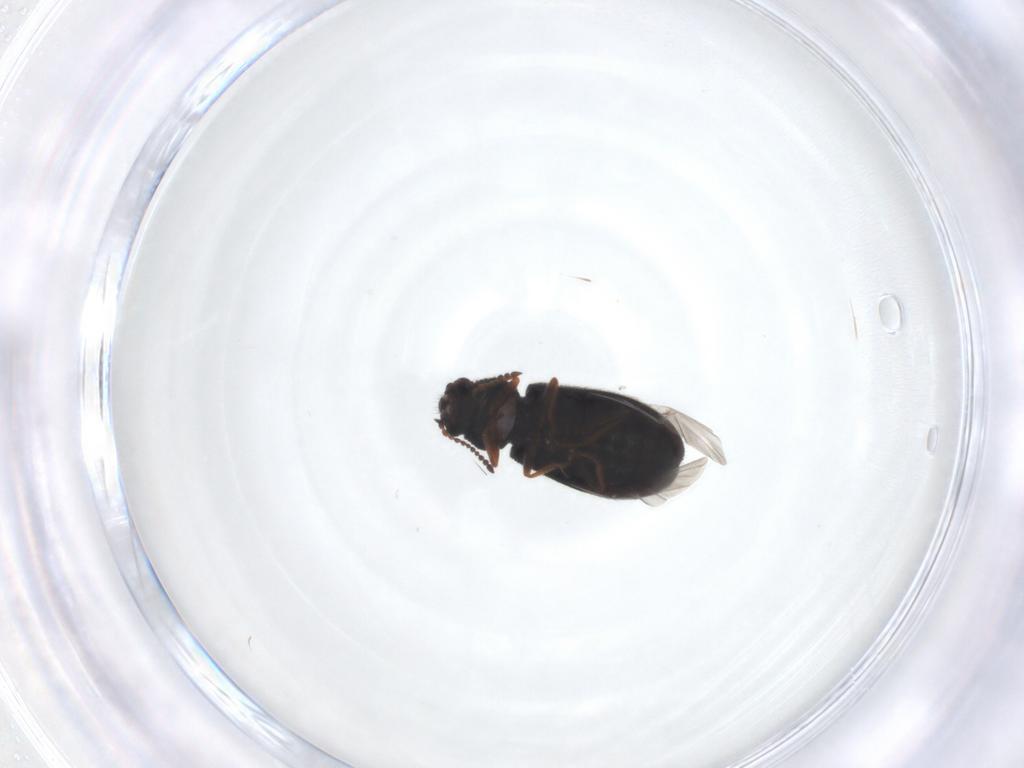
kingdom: Animalia
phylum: Arthropoda
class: Insecta
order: Coleoptera
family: Melyridae
